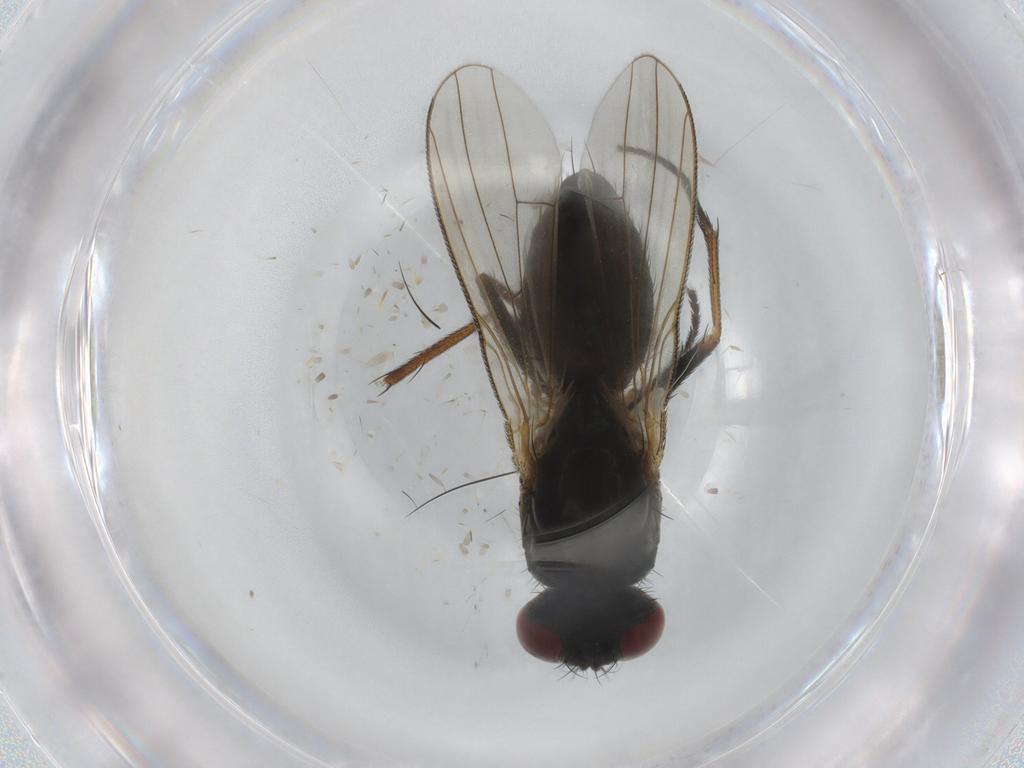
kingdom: Animalia
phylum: Arthropoda
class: Insecta
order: Diptera
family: Muscidae
